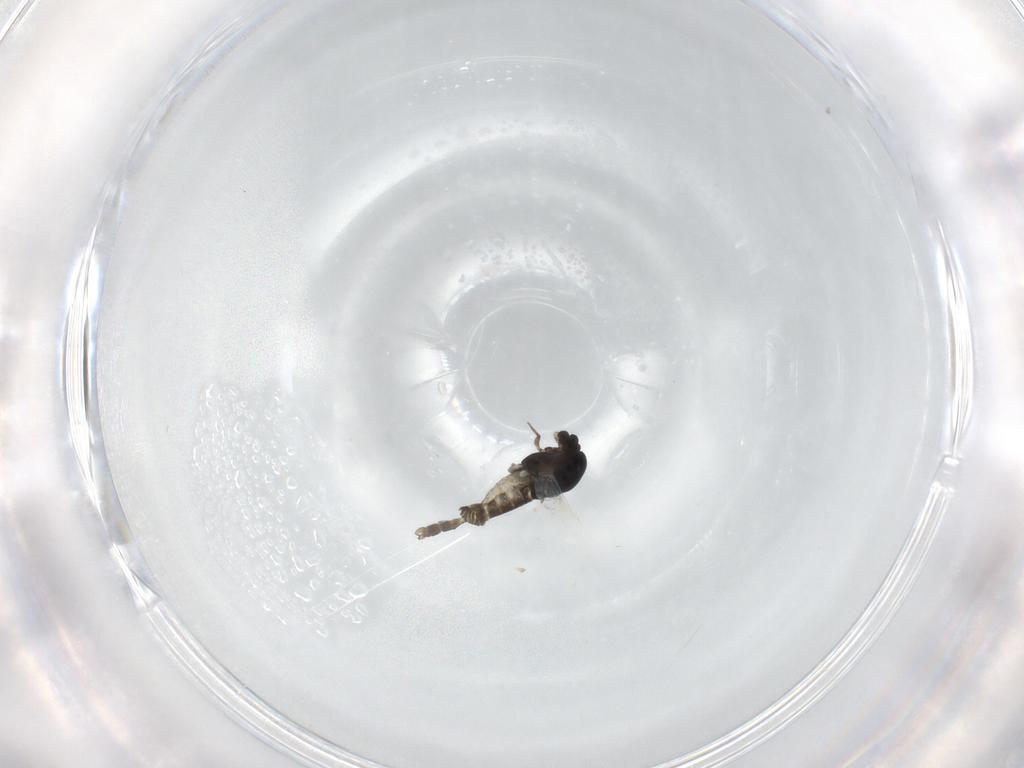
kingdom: Animalia
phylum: Arthropoda
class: Insecta
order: Diptera
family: Chironomidae
